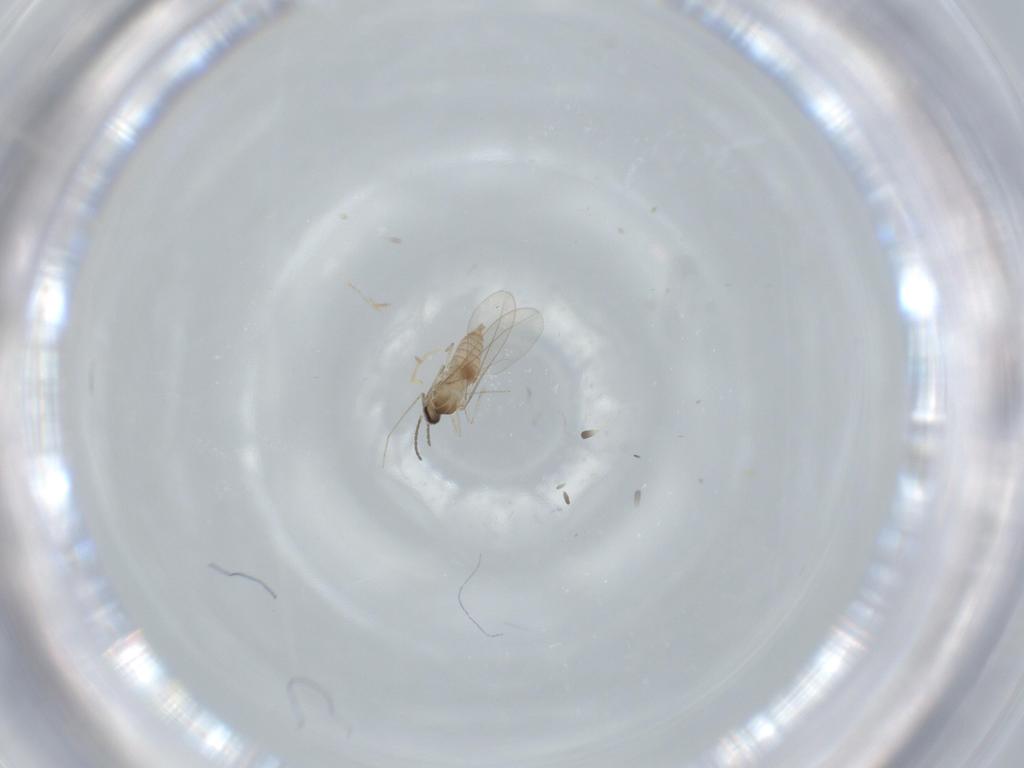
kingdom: Animalia
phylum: Arthropoda
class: Insecta
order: Diptera
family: Cecidomyiidae
